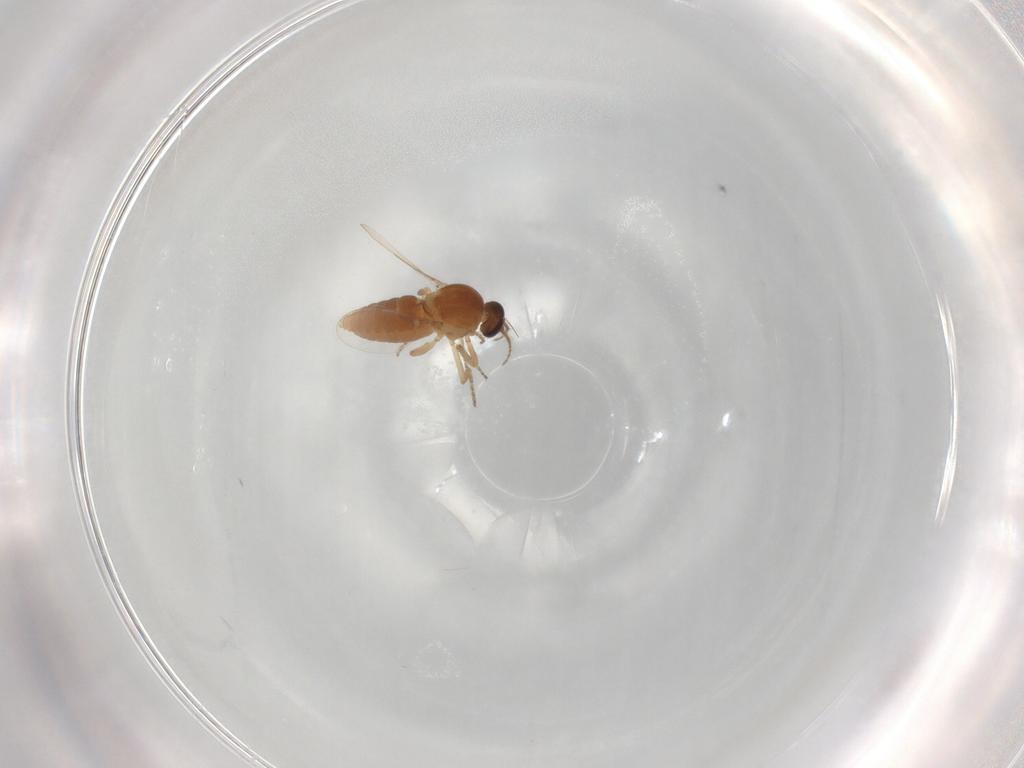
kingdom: Animalia
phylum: Arthropoda
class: Insecta
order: Diptera
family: Ceratopogonidae
